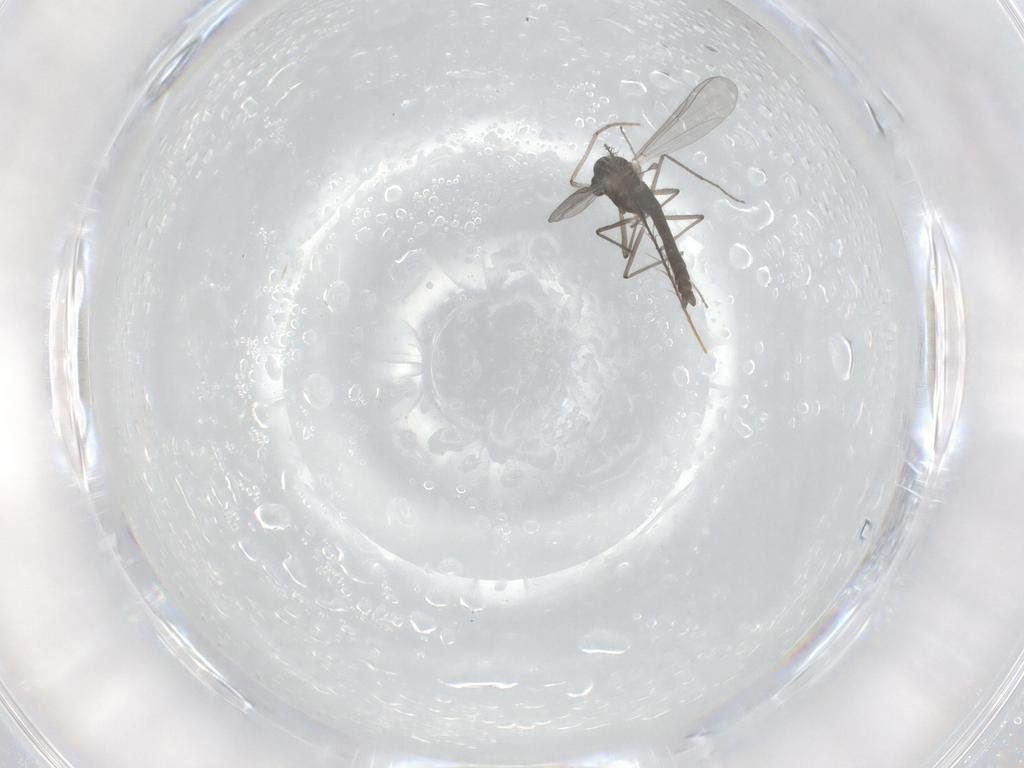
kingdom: Animalia
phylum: Arthropoda
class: Insecta
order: Diptera
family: Chironomidae
